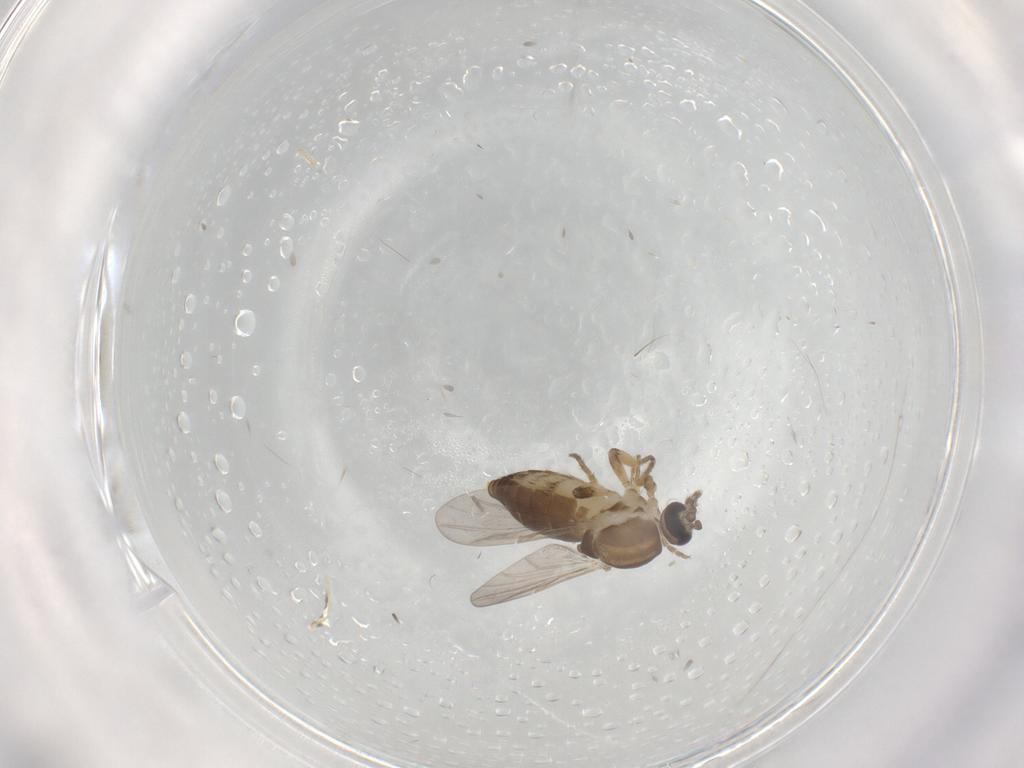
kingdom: Animalia
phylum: Arthropoda
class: Insecta
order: Diptera
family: Ceratopogonidae
